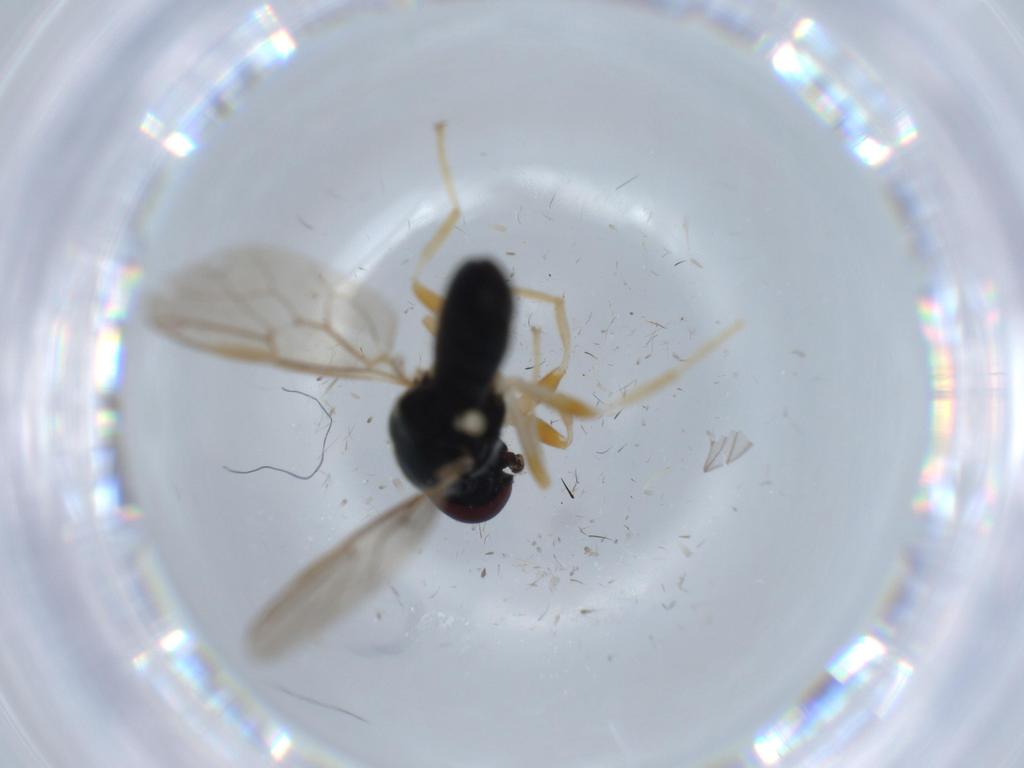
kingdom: Animalia
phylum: Arthropoda
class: Insecta
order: Diptera
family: Stratiomyidae
